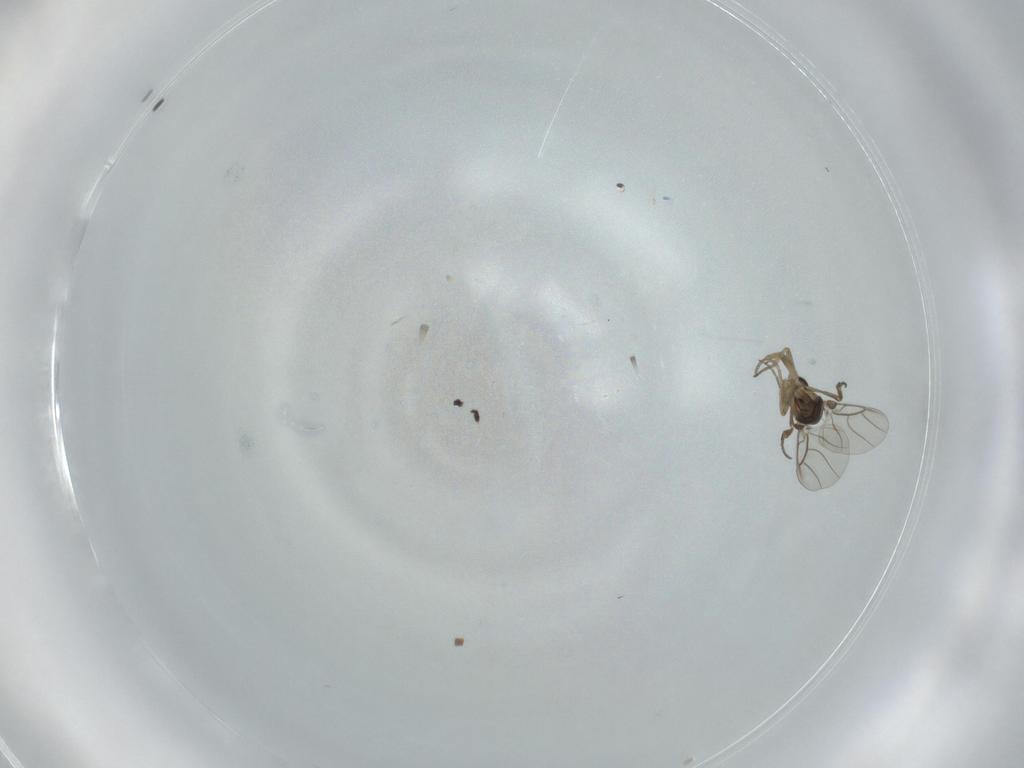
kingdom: Animalia
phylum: Arthropoda
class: Insecta
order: Diptera
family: Phoridae
